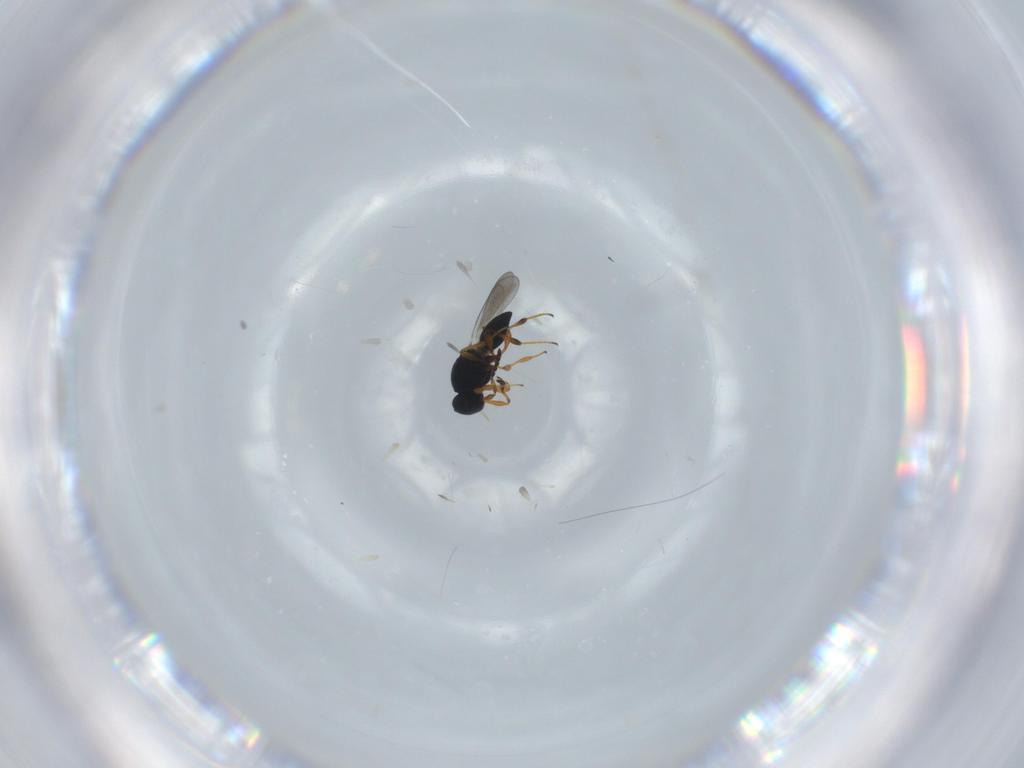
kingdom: Animalia
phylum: Arthropoda
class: Insecta
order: Hymenoptera
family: Platygastridae
